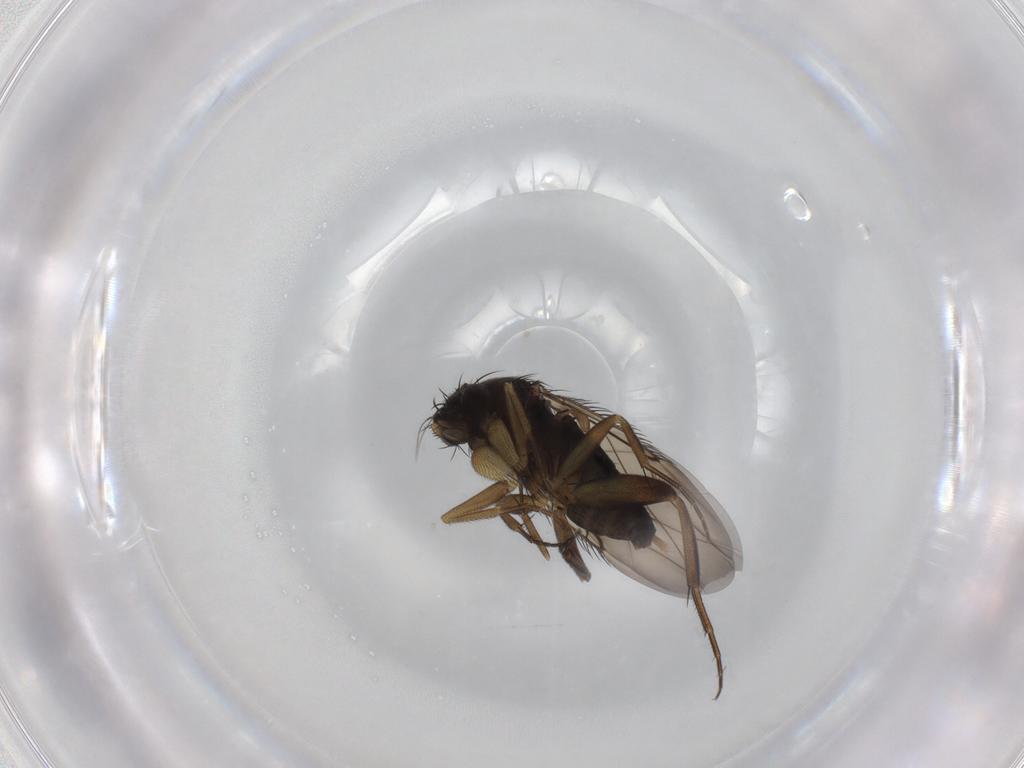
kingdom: Animalia
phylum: Arthropoda
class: Insecta
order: Diptera
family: Phoridae
